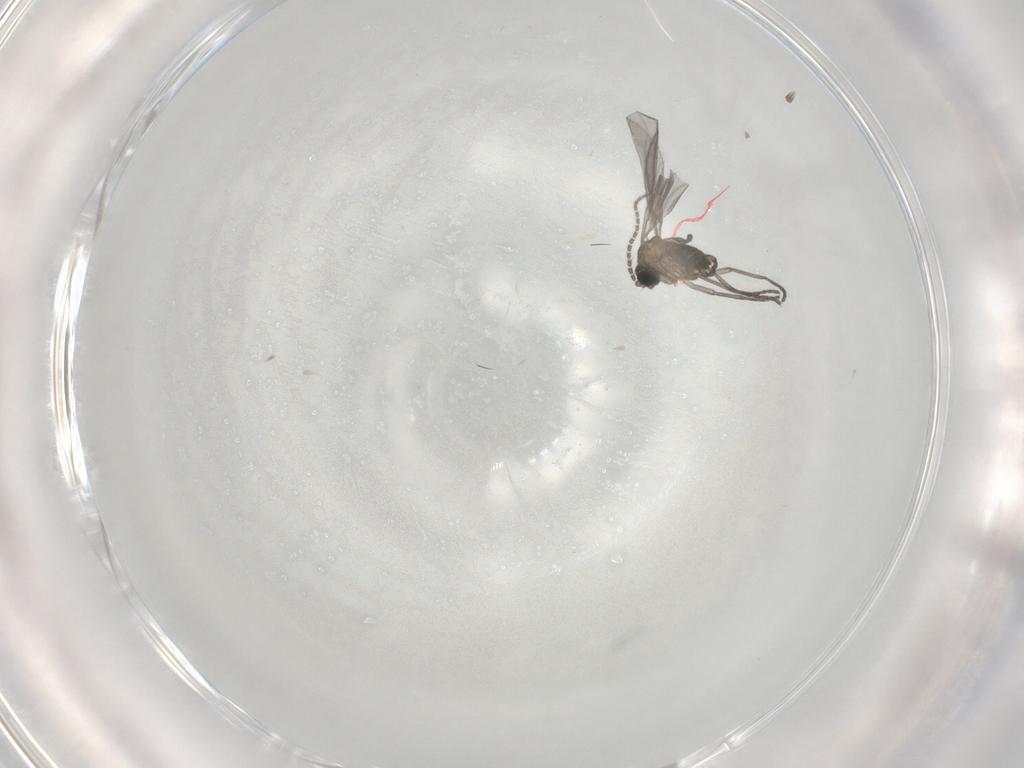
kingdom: Animalia
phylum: Arthropoda
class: Insecta
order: Diptera
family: Sciaridae
